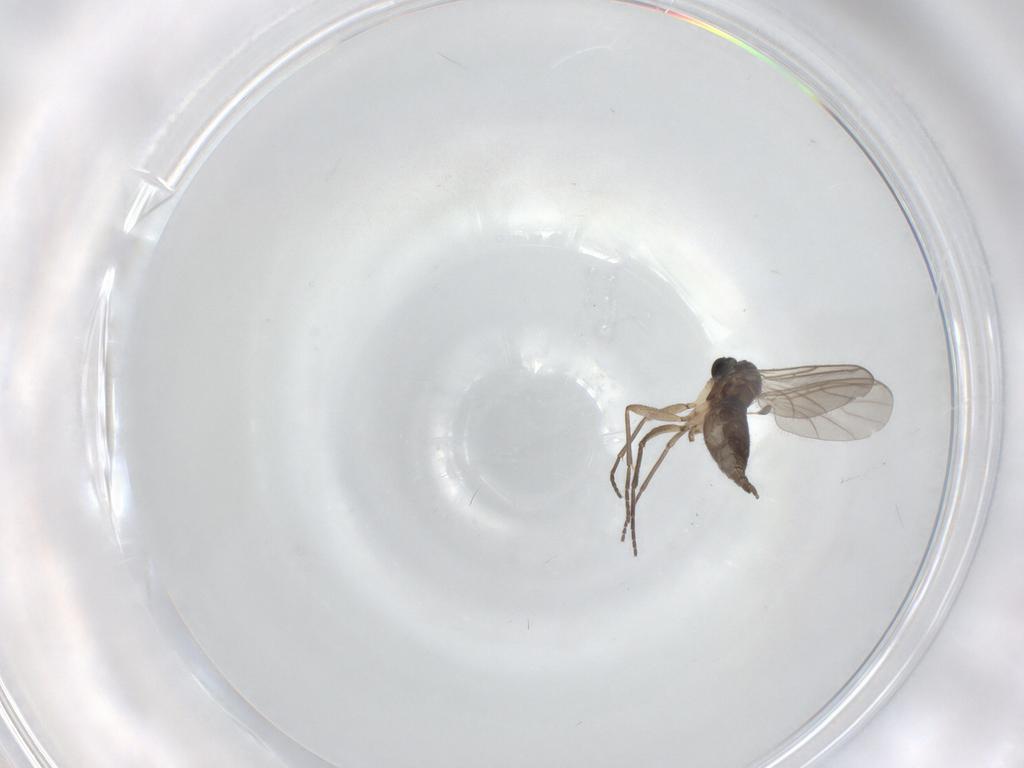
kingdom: Animalia
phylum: Arthropoda
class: Insecta
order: Diptera
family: Sciaridae
